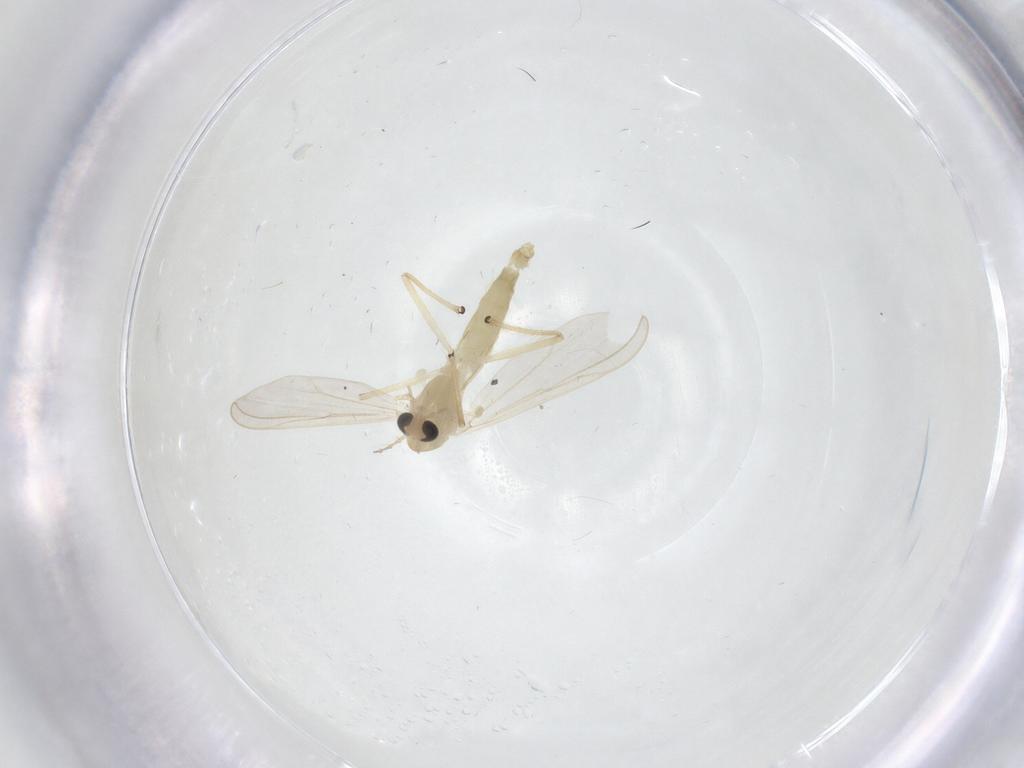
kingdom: Animalia
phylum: Arthropoda
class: Insecta
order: Diptera
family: Chironomidae
